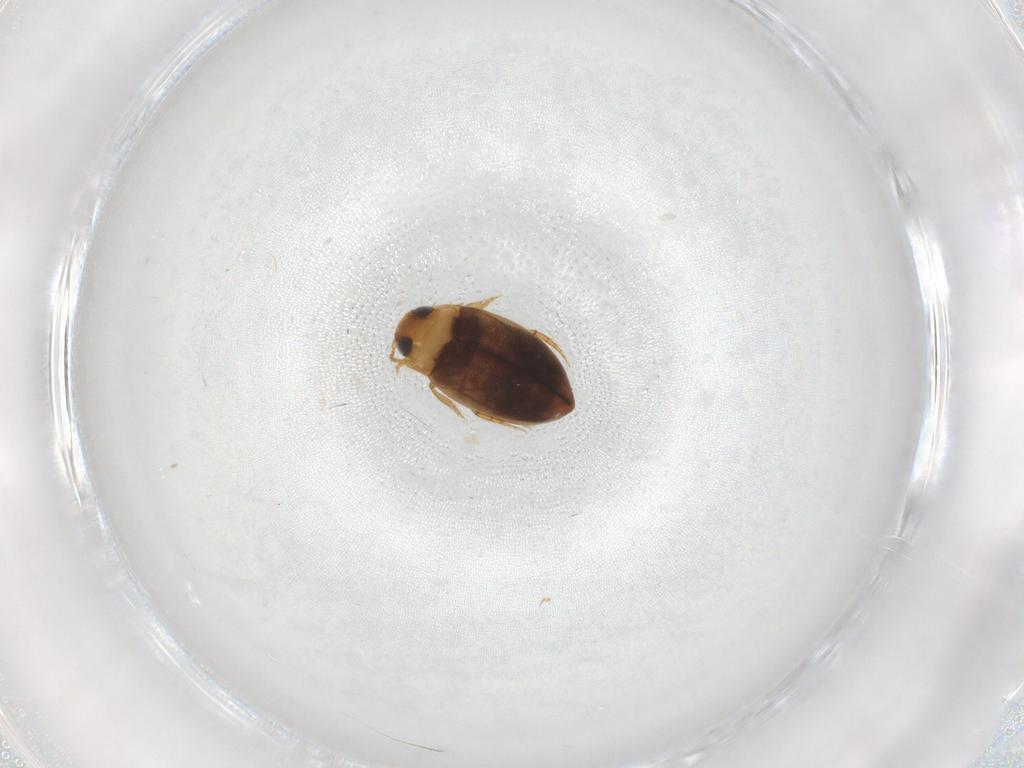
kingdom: Animalia
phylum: Arthropoda
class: Insecta
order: Coleoptera
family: Dytiscidae
